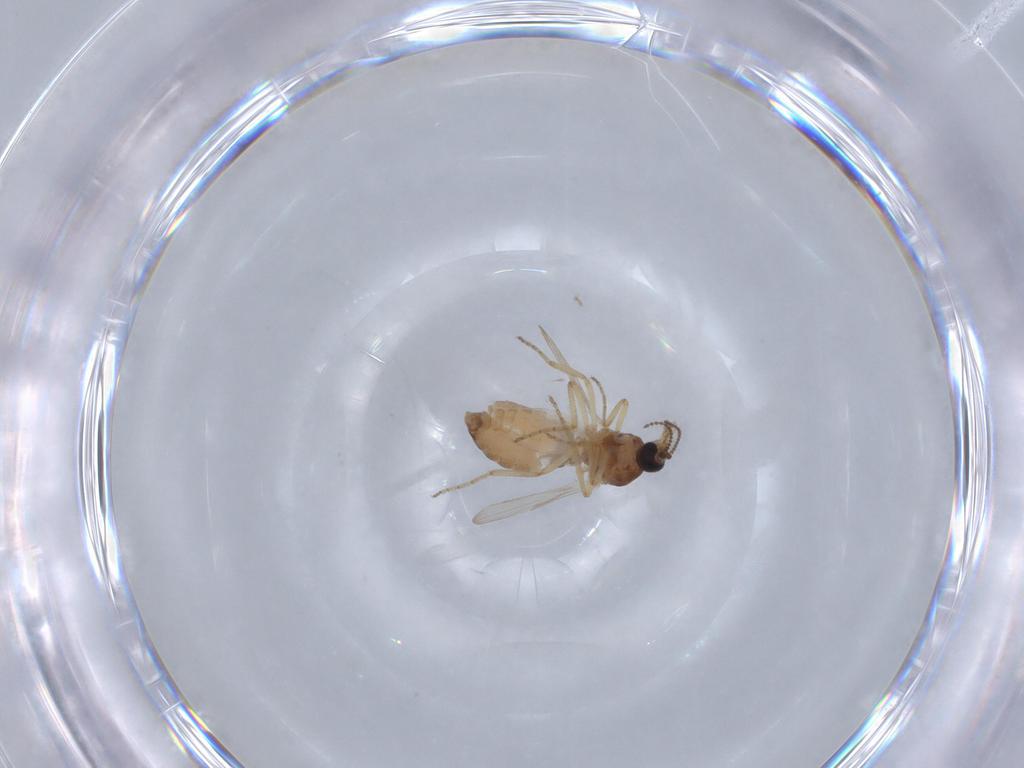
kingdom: Animalia
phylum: Arthropoda
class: Insecta
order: Diptera
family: Ceratopogonidae
